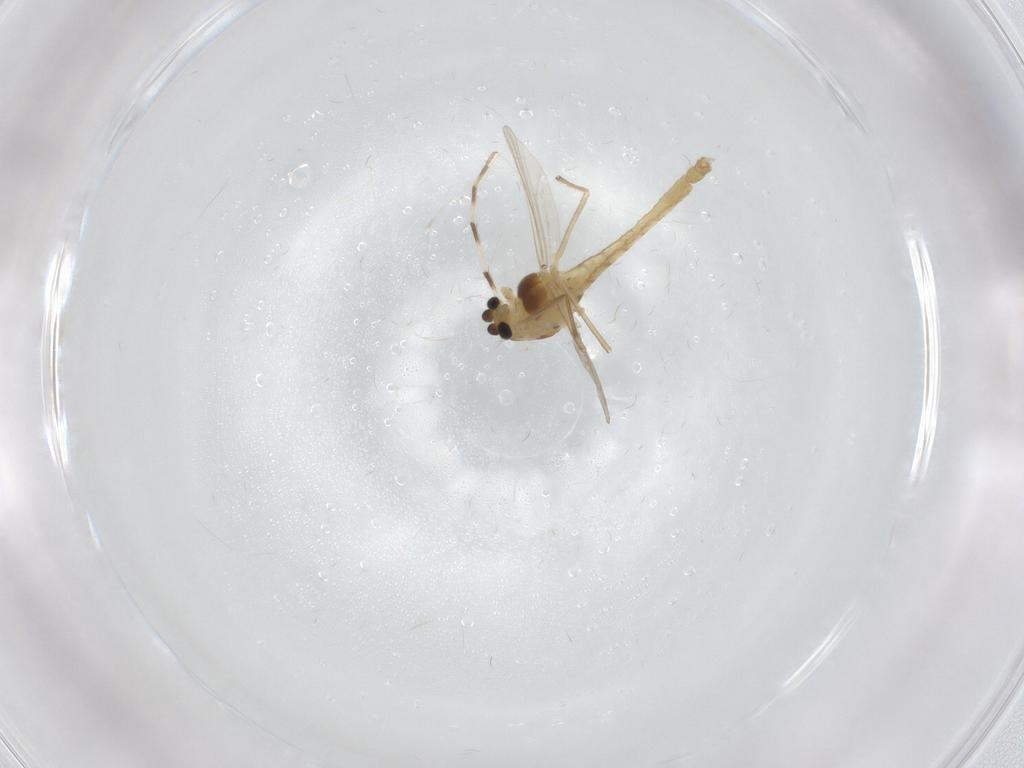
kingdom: Animalia
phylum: Arthropoda
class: Insecta
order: Diptera
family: Chironomidae
